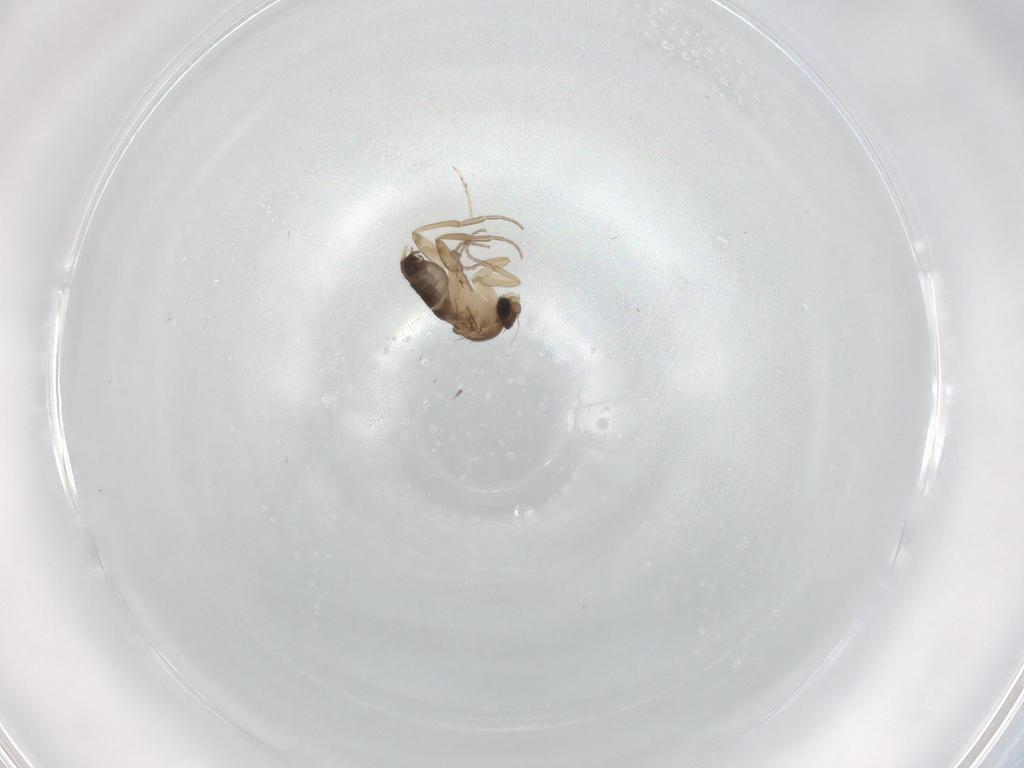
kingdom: Animalia
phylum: Arthropoda
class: Insecta
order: Diptera
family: Phoridae
